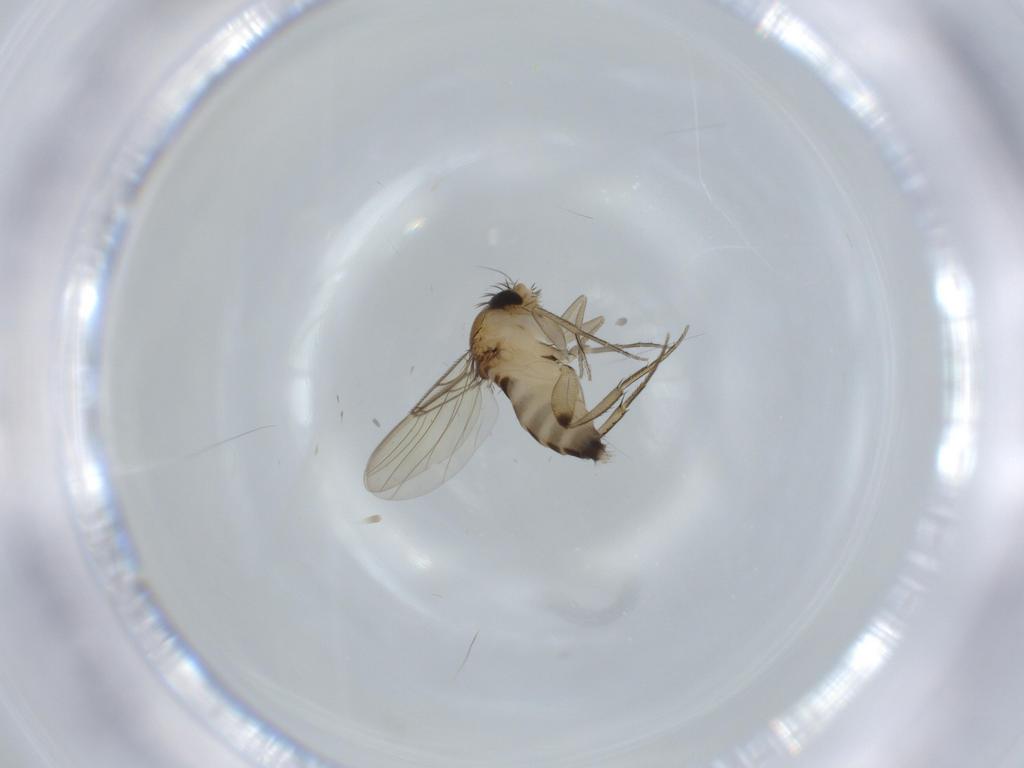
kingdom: Animalia
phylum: Arthropoda
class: Insecta
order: Diptera
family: Phoridae
